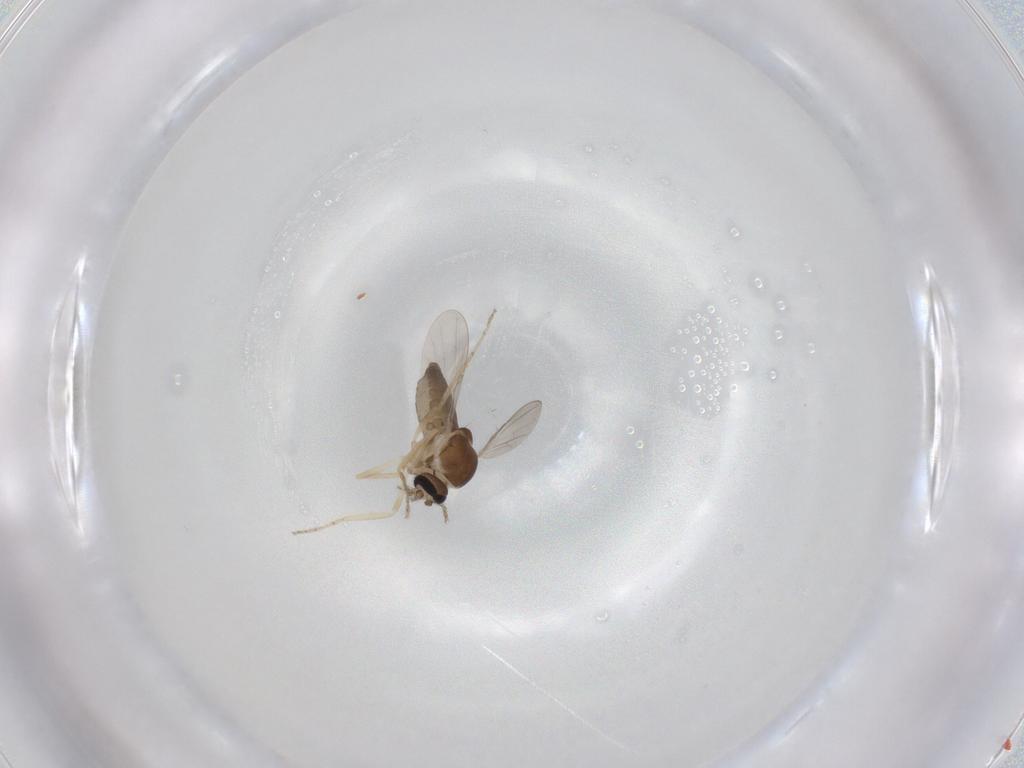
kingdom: Animalia
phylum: Arthropoda
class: Insecta
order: Diptera
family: Ceratopogonidae
